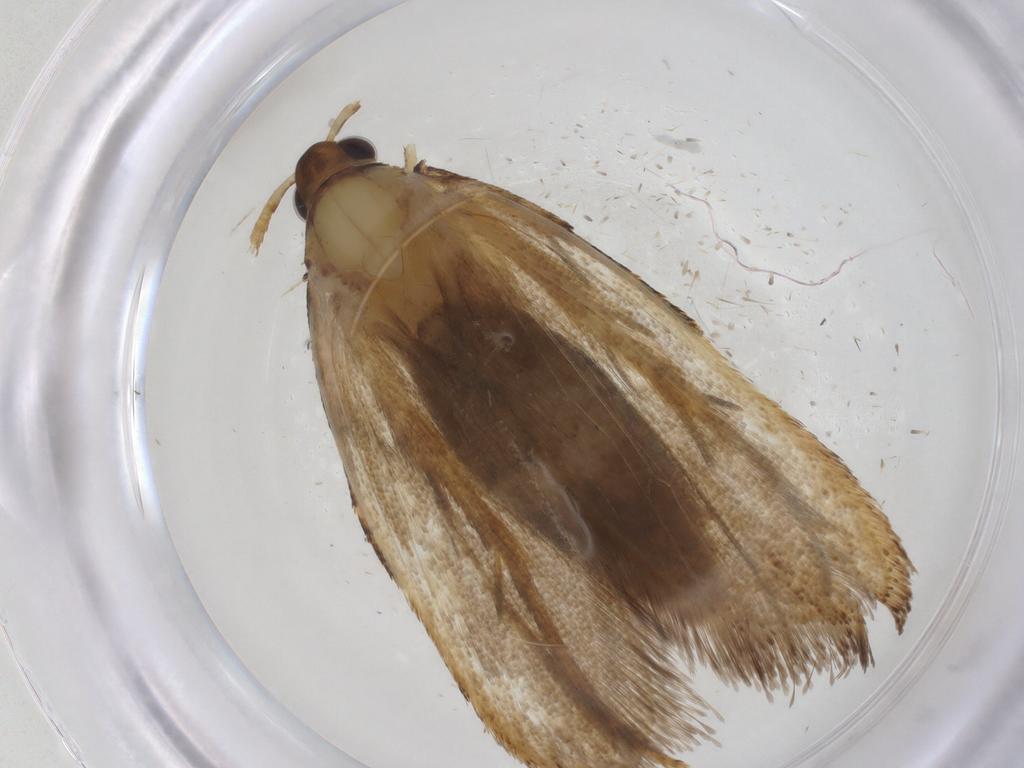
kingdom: Animalia
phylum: Arthropoda
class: Insecta
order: Lepidoptera
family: Lecithoceridae
